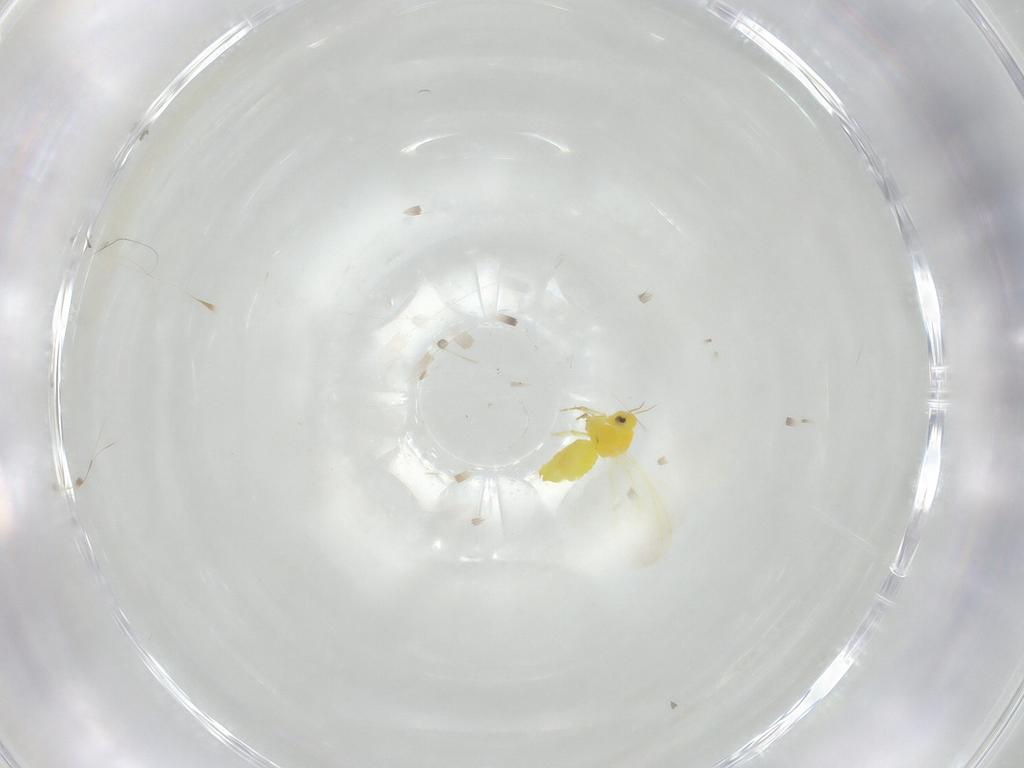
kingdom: Animalia
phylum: Arthropoda
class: Insecta
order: Hemiptera
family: Aleyrodidae
